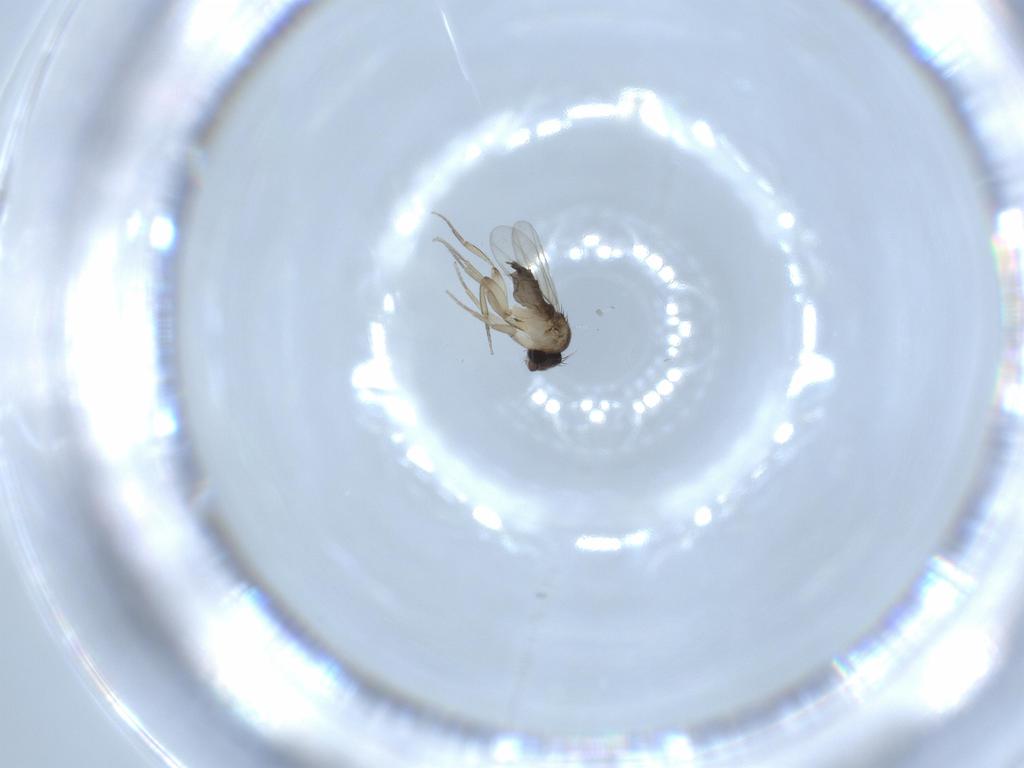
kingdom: Animalia
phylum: Arthropoda
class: Insecta
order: Diptera
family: Phoridae
